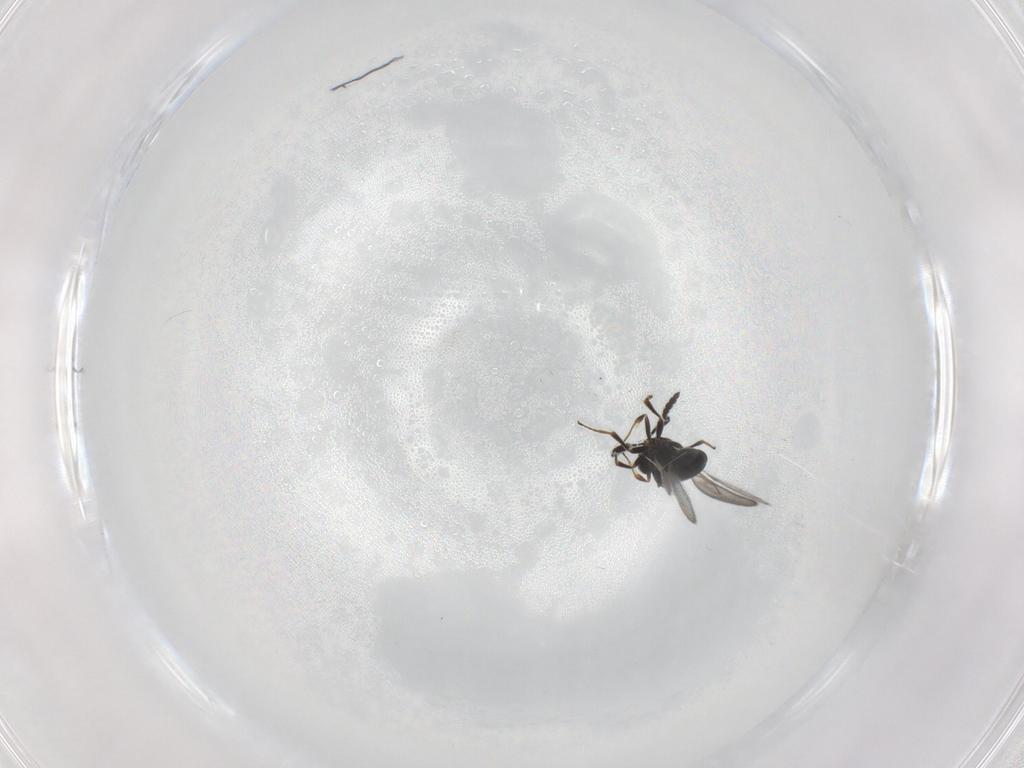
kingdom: Animalia
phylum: Arthropoda
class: Insecta
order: Hymenoptera
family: Scelionidae
